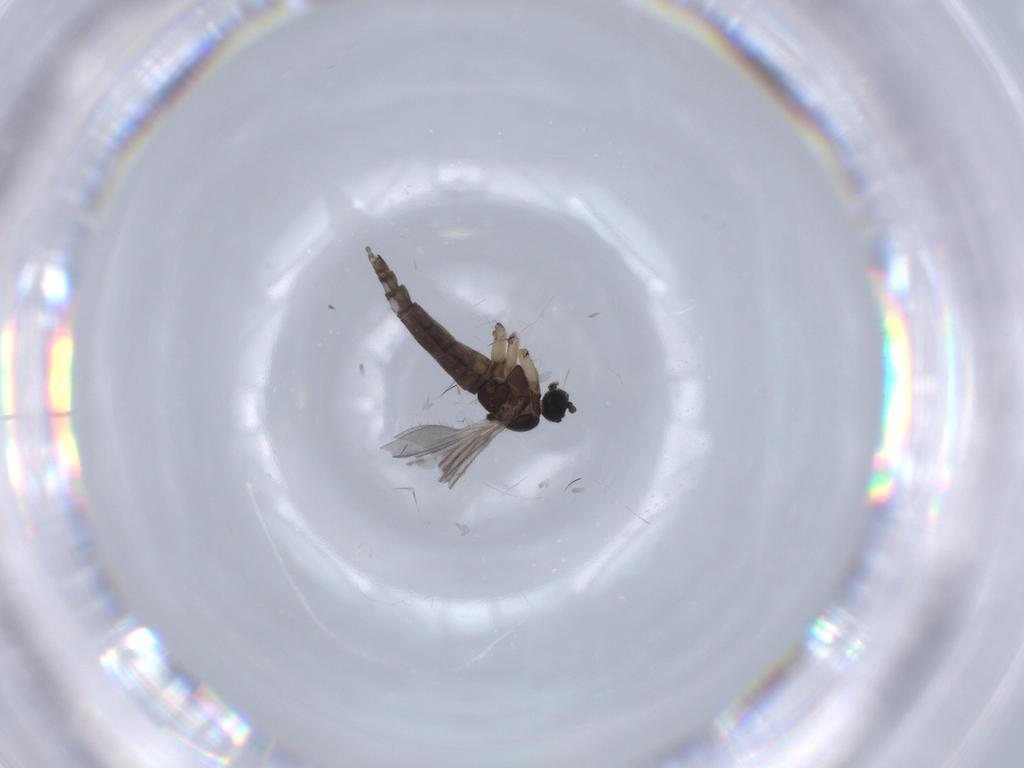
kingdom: Animalia
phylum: Arthropoda
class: Insecta
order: Diptera
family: Sciaridae
